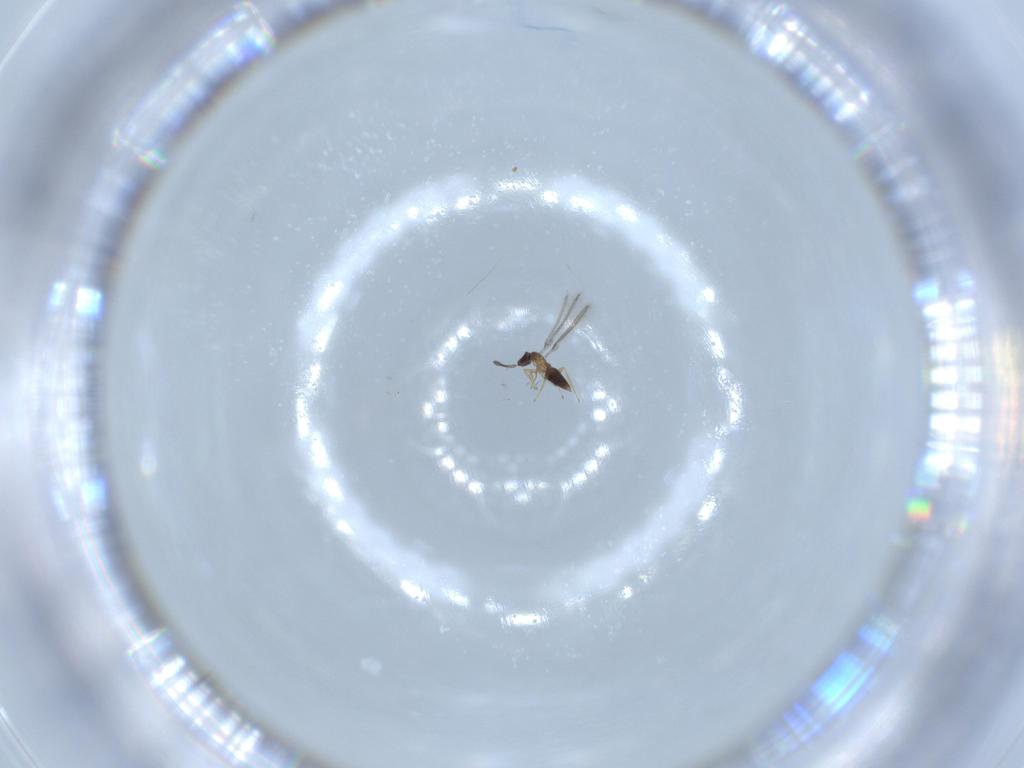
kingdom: Animalia
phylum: Arthropoda
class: Insecta
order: Hymenoptera
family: Mymaridae
